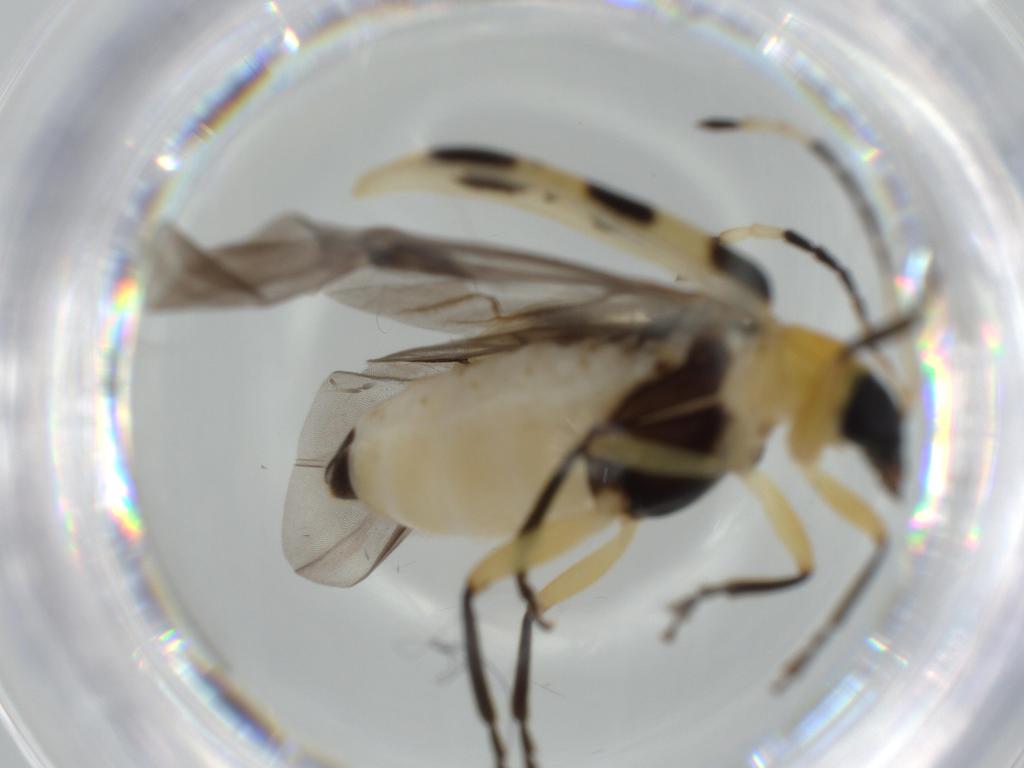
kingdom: Animalia
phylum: Arthropoda
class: Insecta
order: Coleoptera
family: Chrysomelidae
